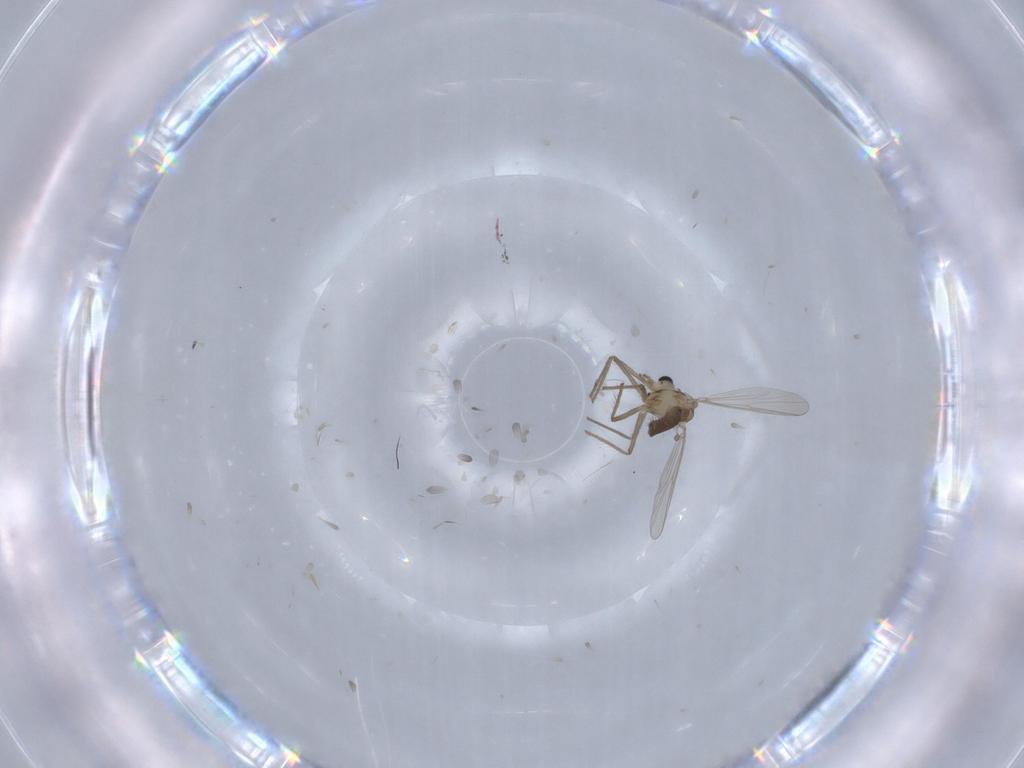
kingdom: Animalia
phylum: Arthropoda
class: Insecta
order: Diptera
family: Chironomidae
